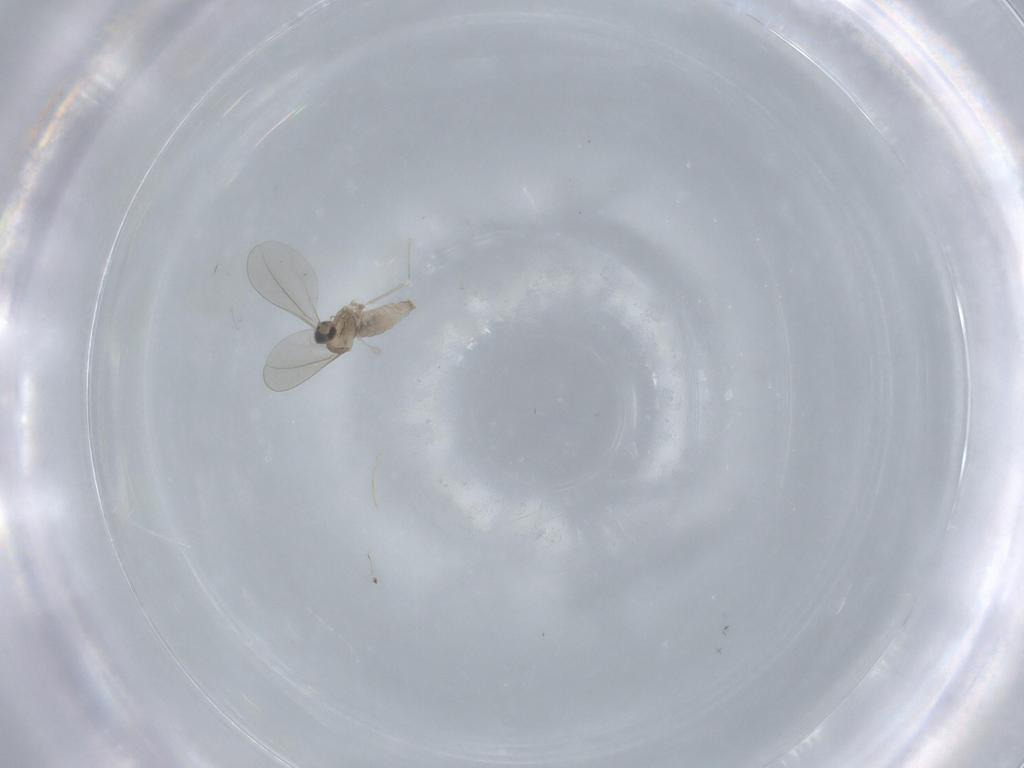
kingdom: Animalia
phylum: Arthropoda
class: Insecta
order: Diptera
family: Cecidomyiidae
